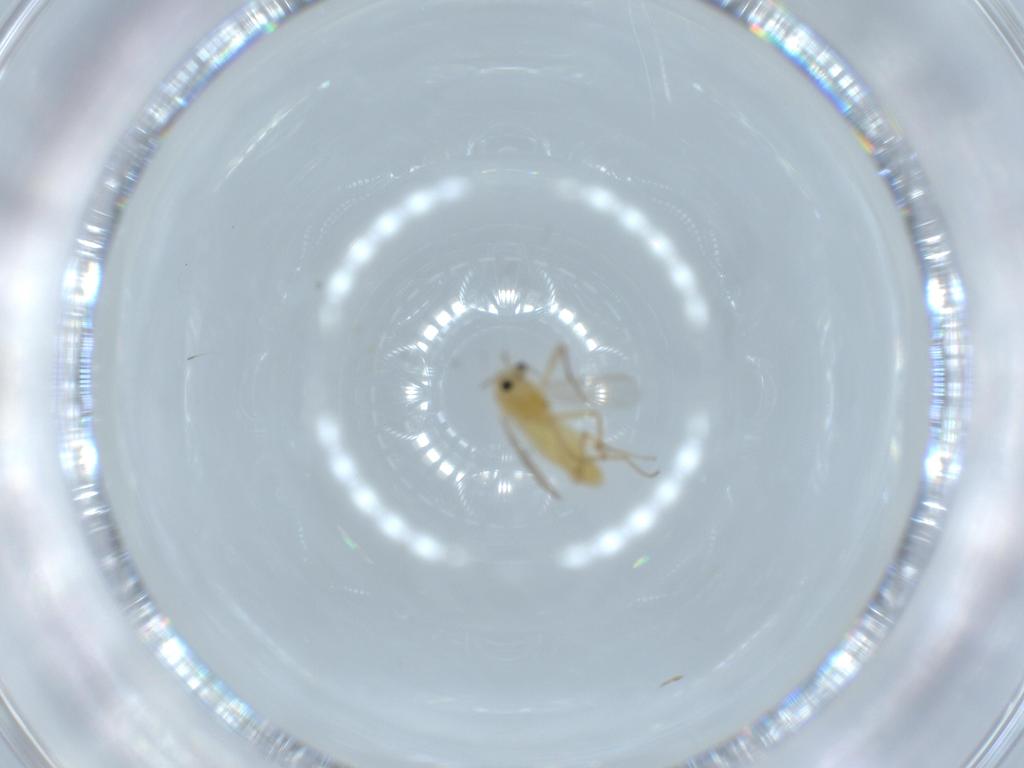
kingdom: Animalia
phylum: Arthropoda
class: Insecta
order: Diptera
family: Chironomidae
